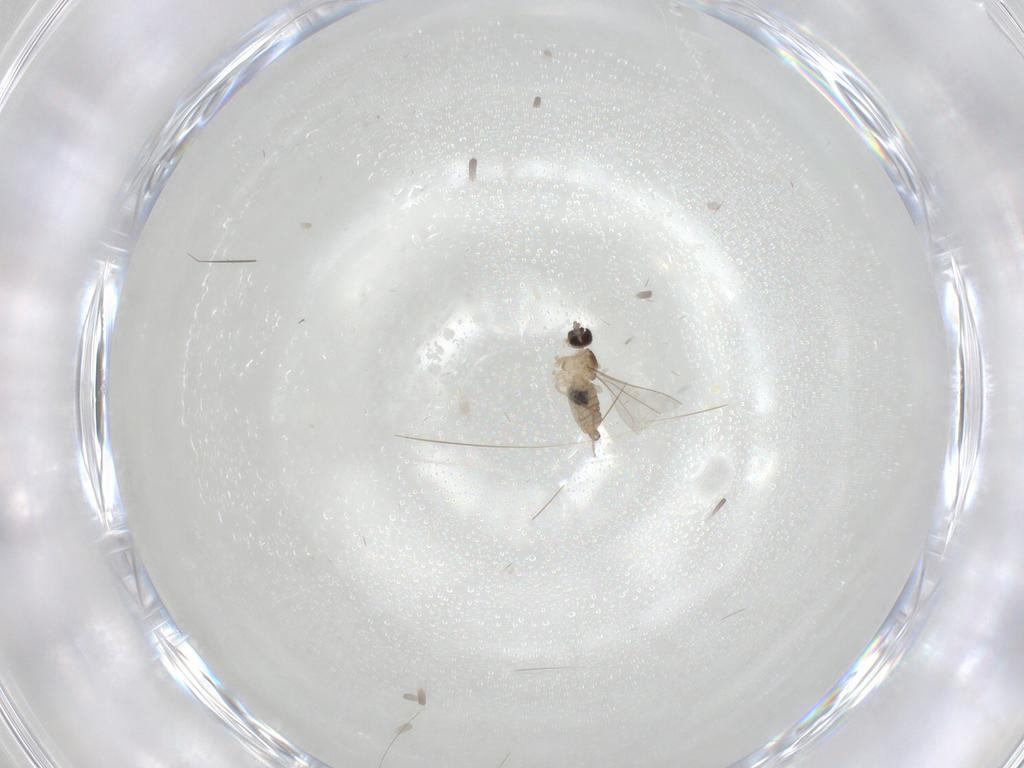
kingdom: Animalia
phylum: Arthropoda
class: Insecta
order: Diptera
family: Cecidomyiidae
